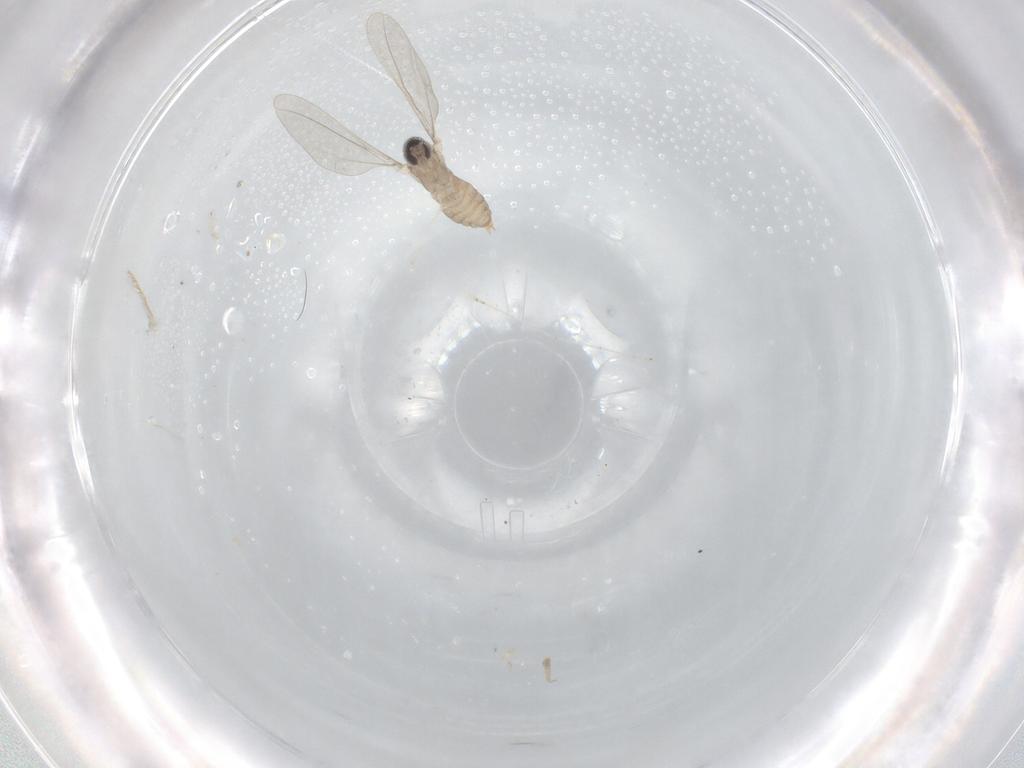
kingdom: Animalia
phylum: Arthropoda
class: Insecta
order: Diptera
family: Cecidomyiidae
